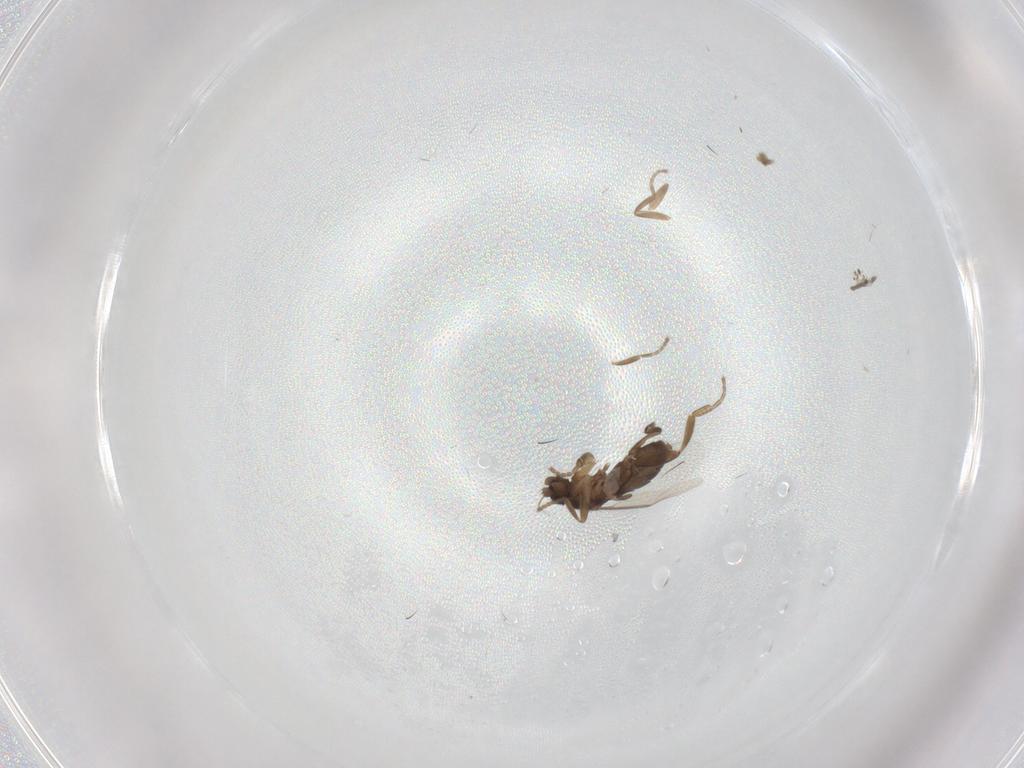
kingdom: Animalia
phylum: Arthropoda
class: Insecta
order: Diptera
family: Phoridae
